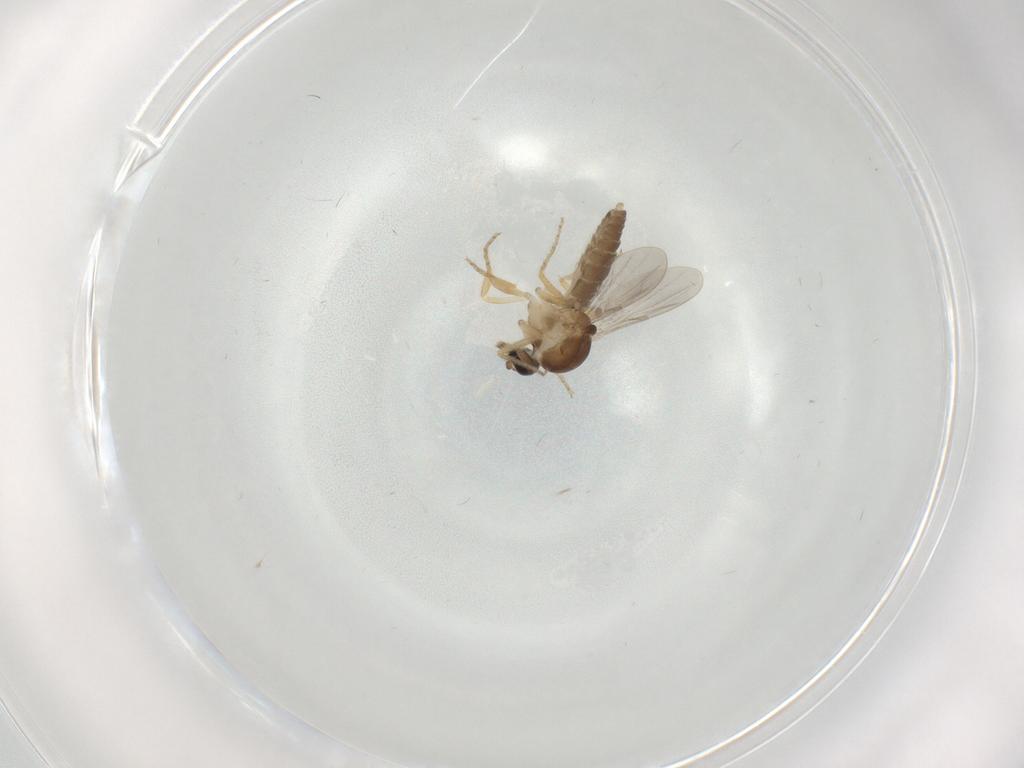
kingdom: Animalia
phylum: Arthropoda
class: Insecta
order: Diptera
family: Ceratopogonidae
